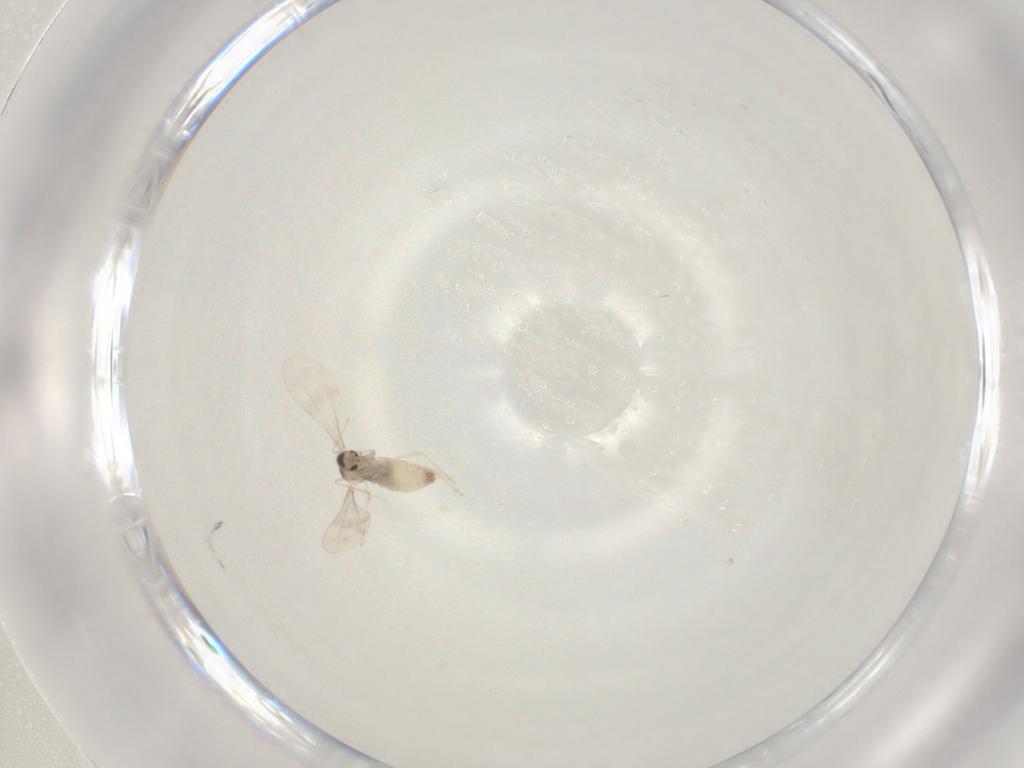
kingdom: Animalia
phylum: Arthropoda
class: Insecta
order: Diptera
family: Cecidomyiidae
